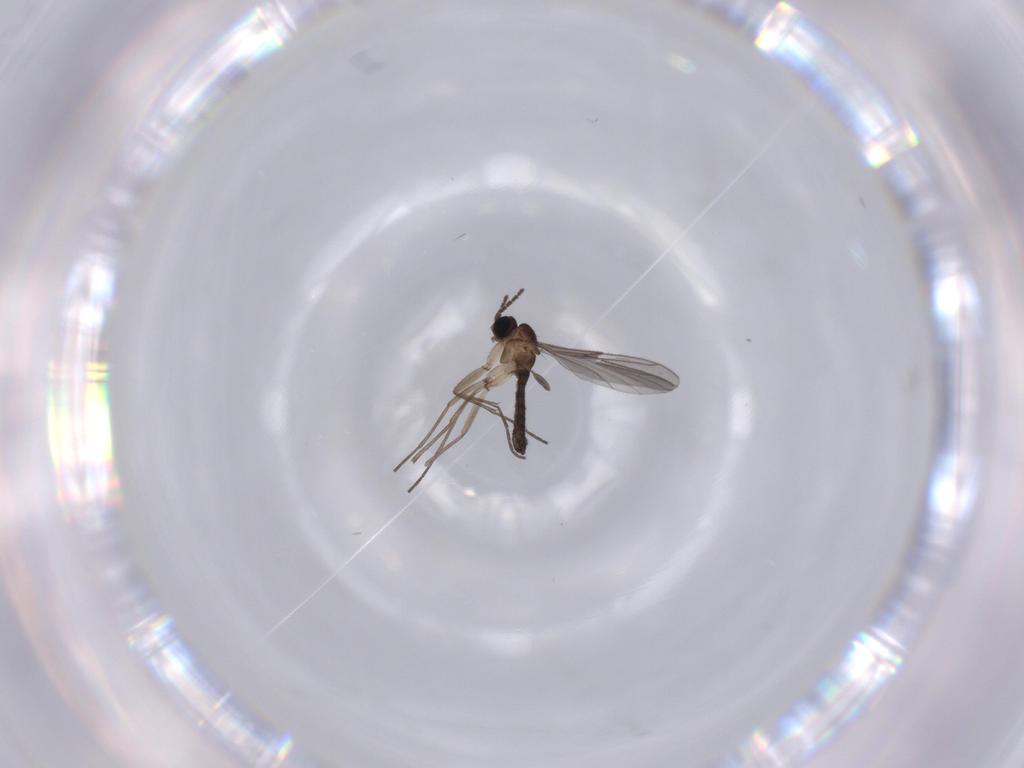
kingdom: Animalia
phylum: Arthropoda
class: Insecta
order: Diptera
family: Sciaridae
